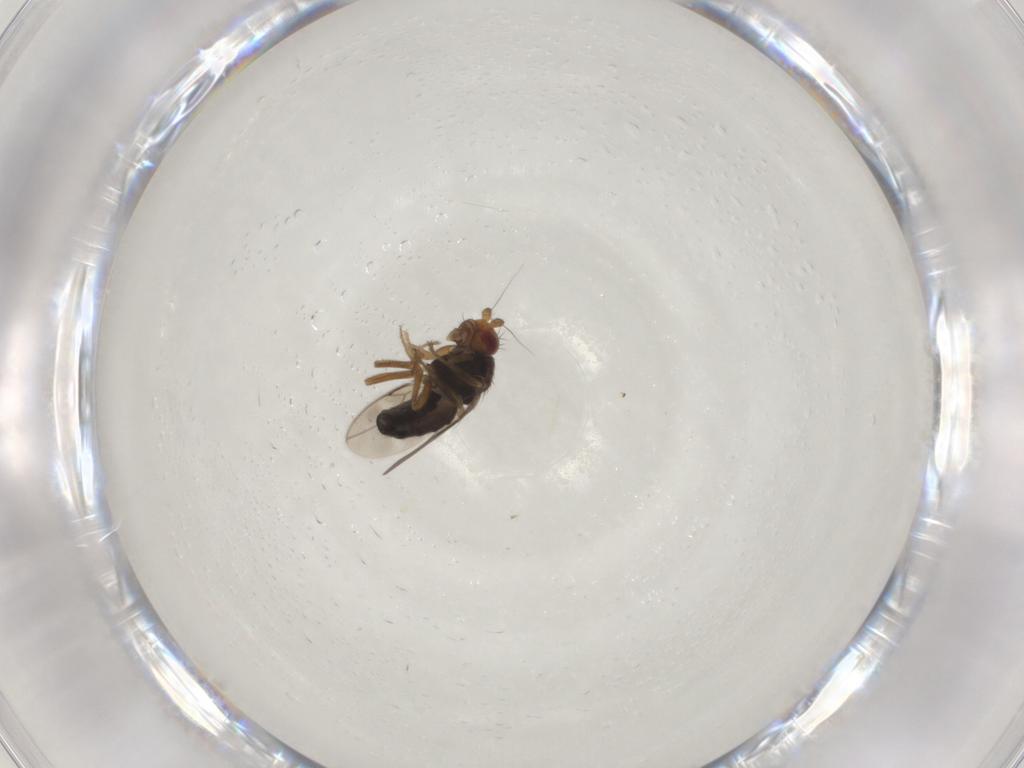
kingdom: Animalia
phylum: Arthropoda
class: Insecta
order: Diptera
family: Sphaeroceridae
